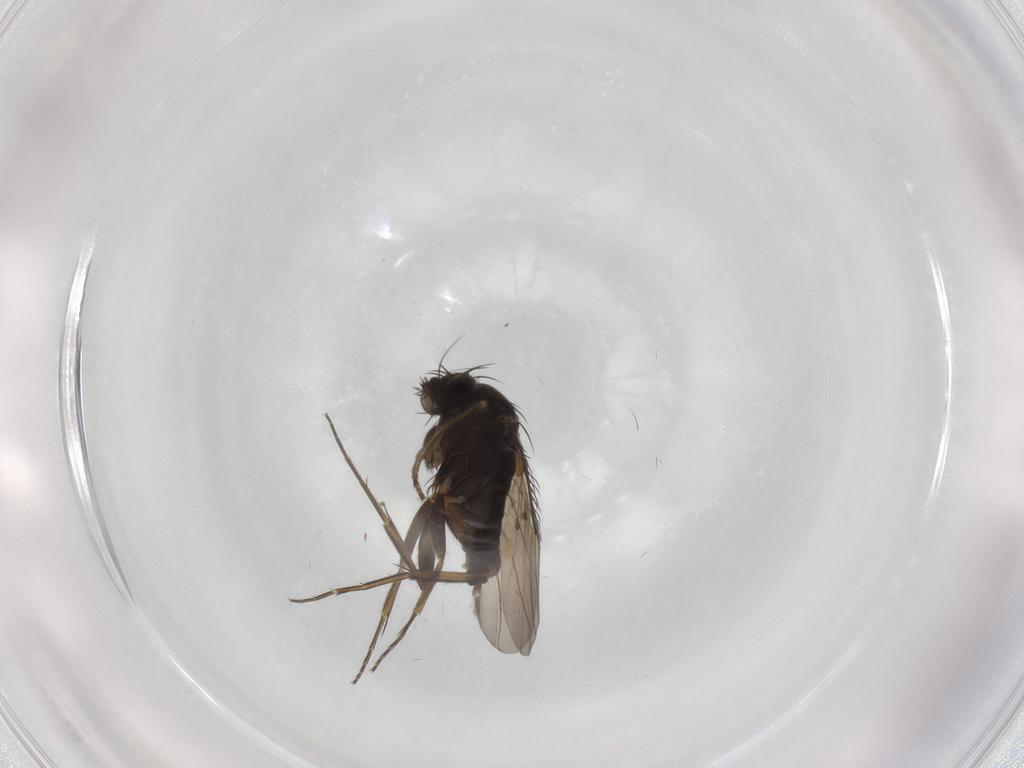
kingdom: Animalia
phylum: Arthropoda
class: Insecta
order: Diptera
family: Phoridae
